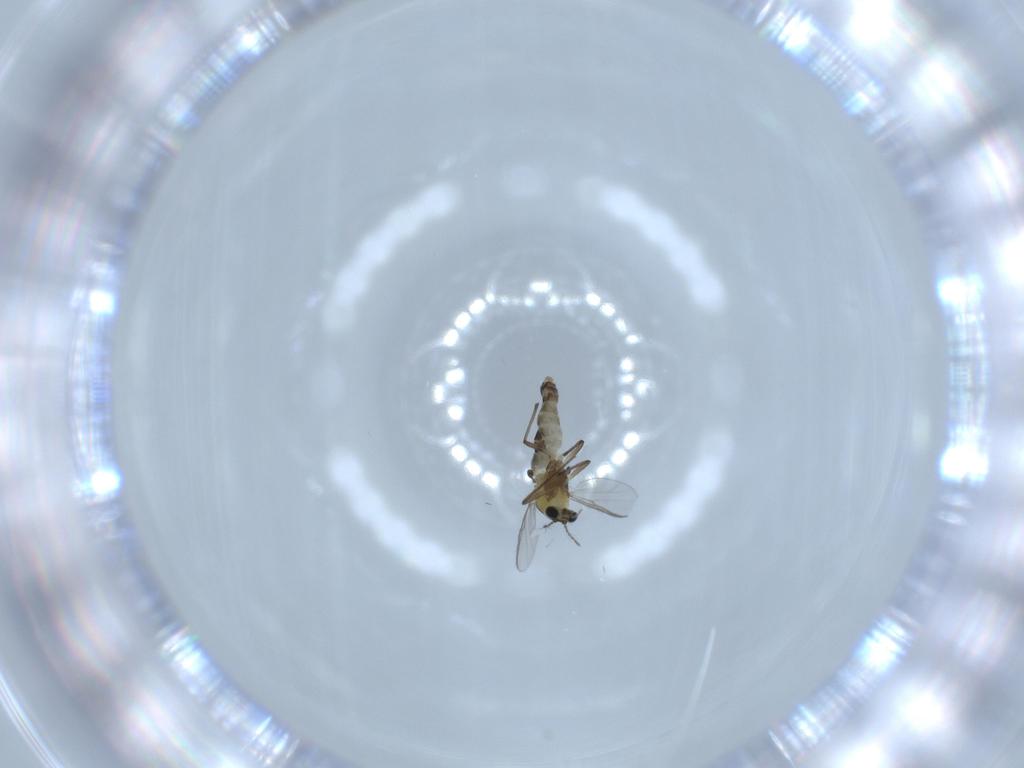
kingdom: Animalia
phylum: Arthropoda
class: Insecta
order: Diptera
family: Chironomidae
